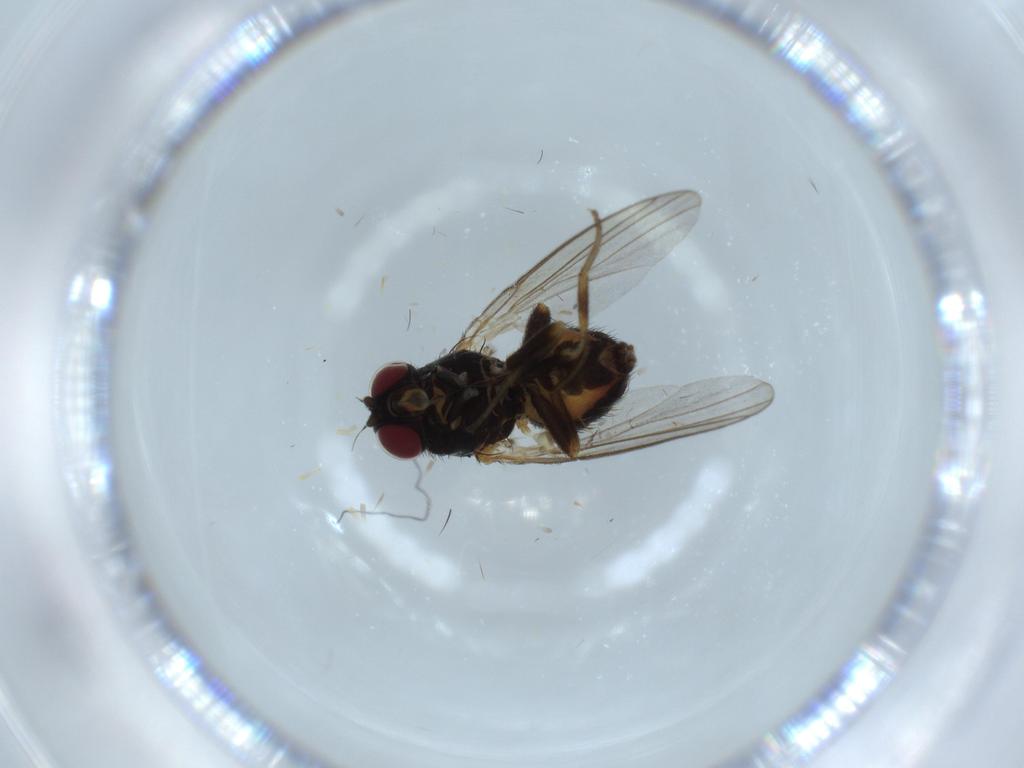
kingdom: Animalia
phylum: Arthropoda
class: Insecta
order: Diptera
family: Agromyzidae
